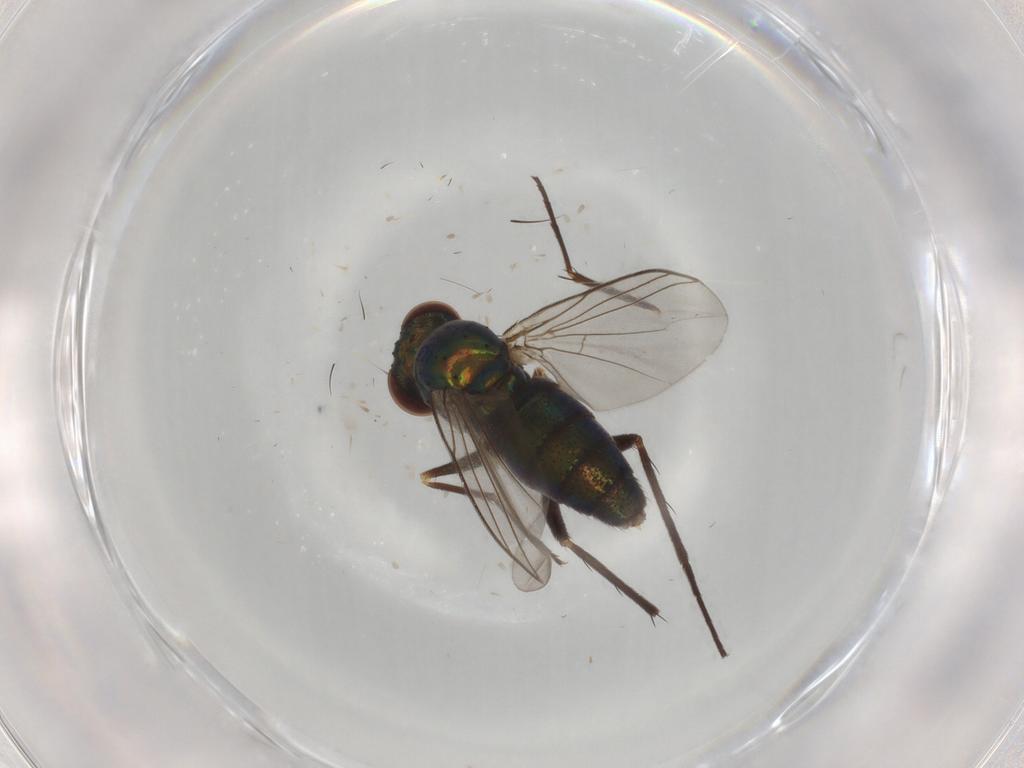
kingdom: Animalia
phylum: Arthropoda
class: Insecta
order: Diptera
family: Dolichopodidae
